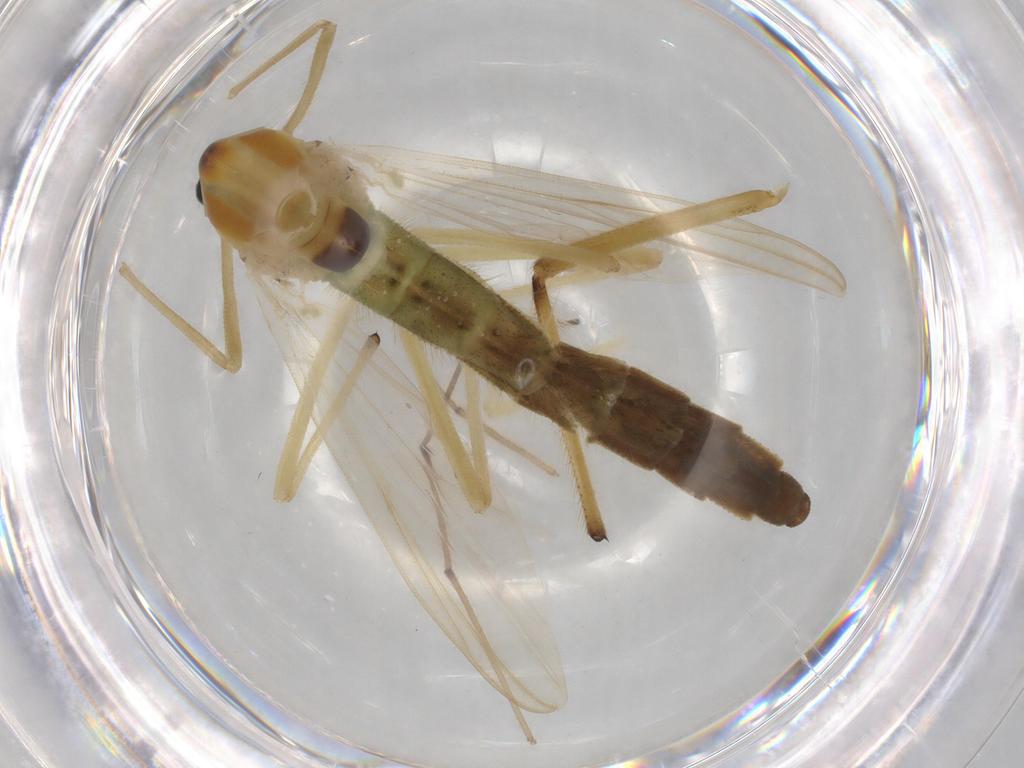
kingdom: Animalia
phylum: Arthropoda
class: Insecta
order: Diptera
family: Chironomidae
